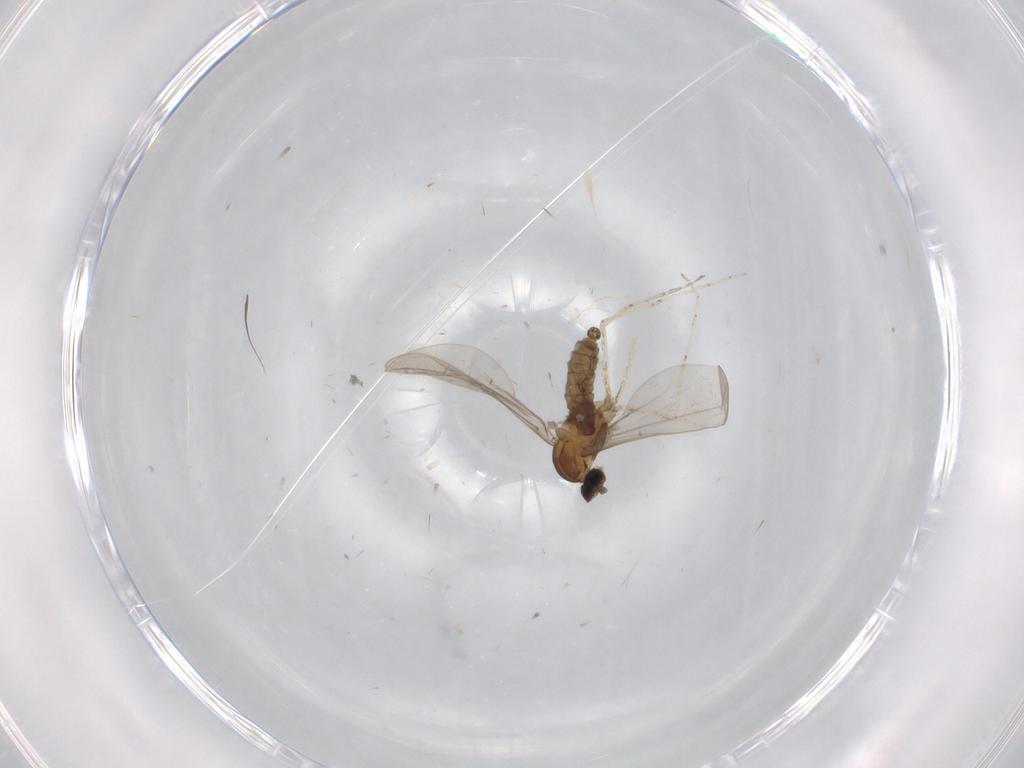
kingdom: Animalia
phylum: Arthropoda
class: Insecta
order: Diptera
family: Cecidomyiidae
